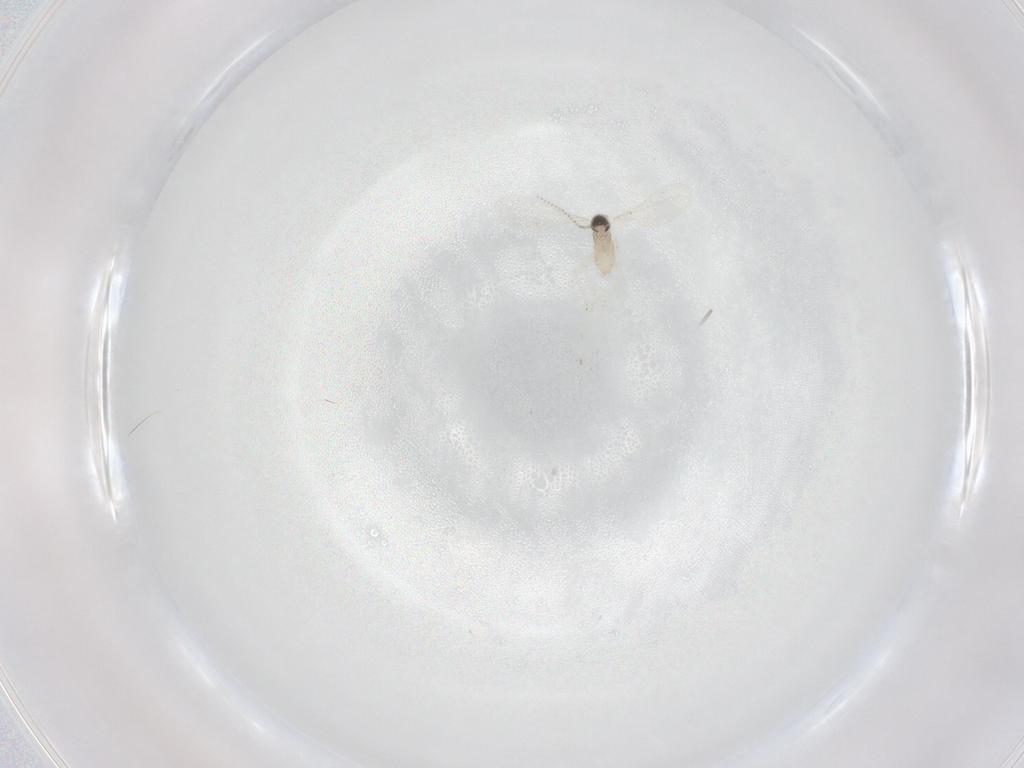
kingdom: Animalia
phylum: Arthropoda
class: Insecta
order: Diptera
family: Cecidomyiidae
